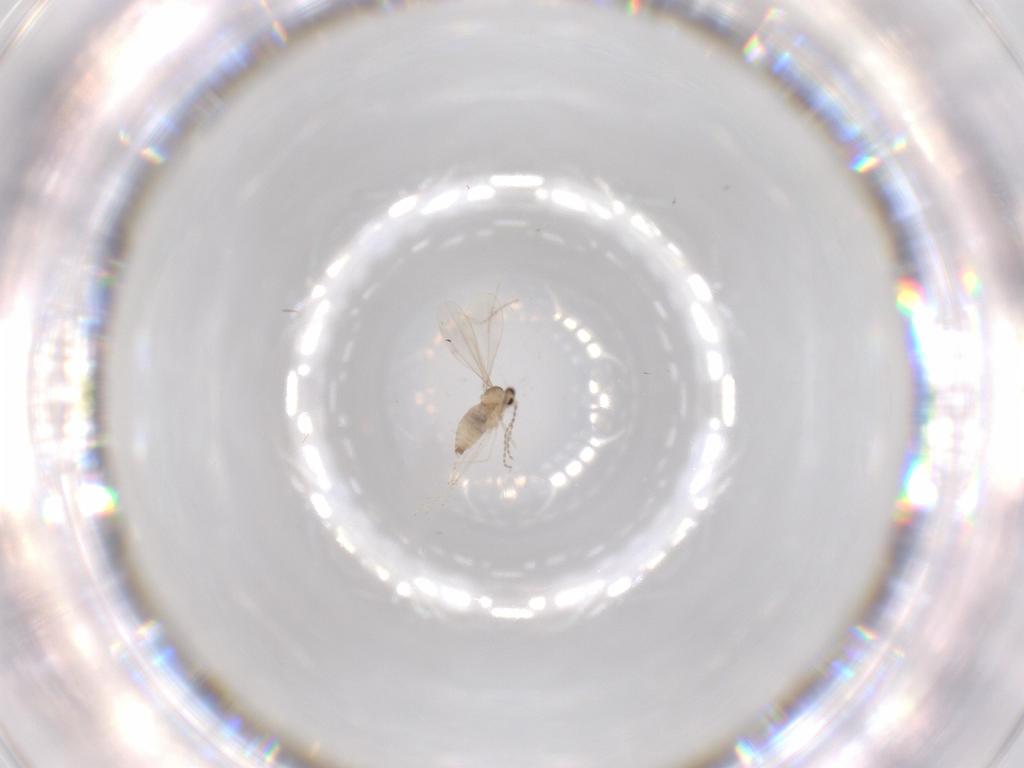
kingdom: Animalia
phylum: Arthropoda
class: Insecta
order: Diptera
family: Cecidomyiidae
